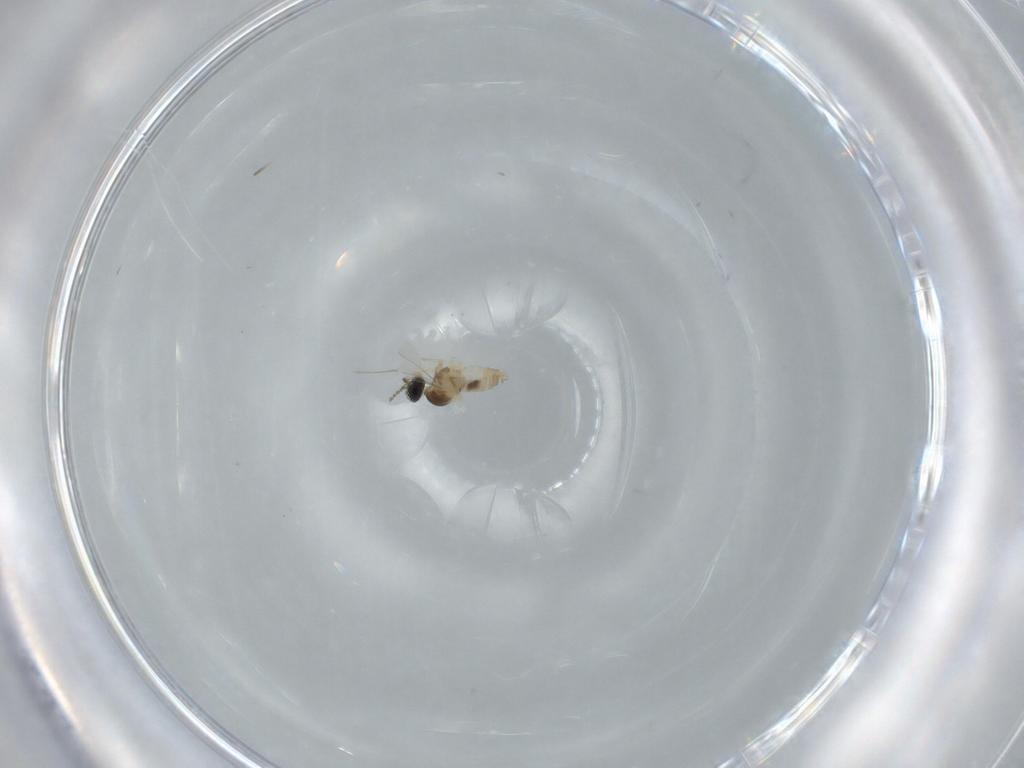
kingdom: Animalia
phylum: Arthropoda
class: Insecta
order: Diptera
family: Cecidomyiidae
